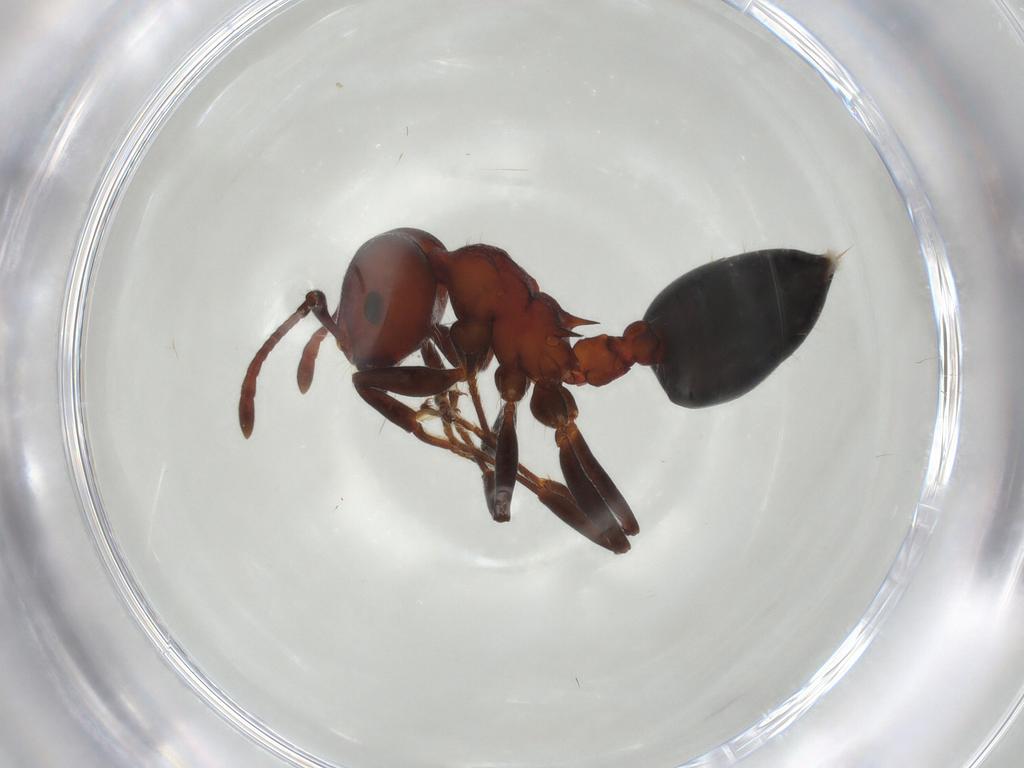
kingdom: Animalia
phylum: Arthropoda
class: Insecta
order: Hymenoptera
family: Formicidae
